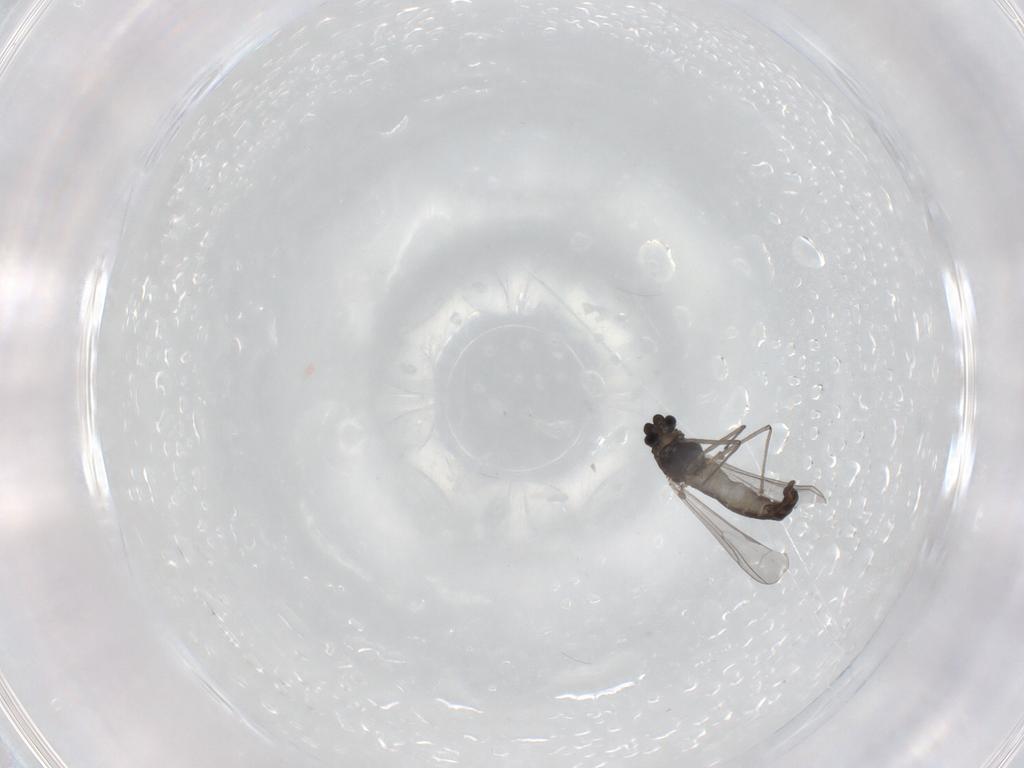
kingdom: Animalia
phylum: Arthropoda
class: Insecta
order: Diptera
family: Chironomidae
